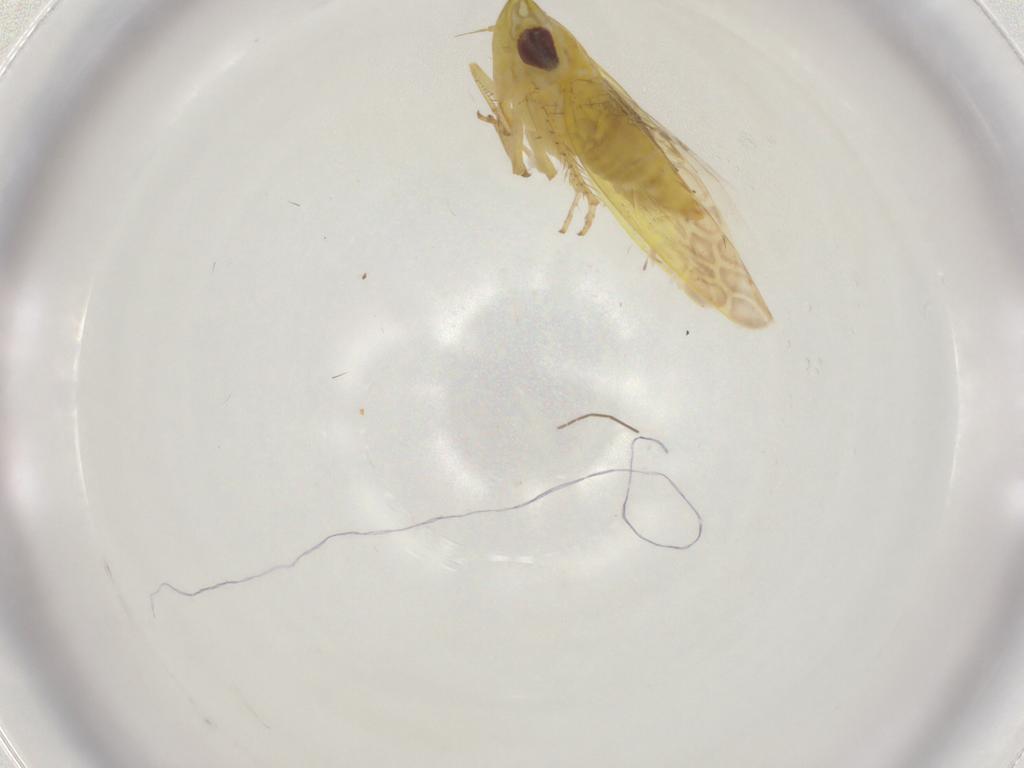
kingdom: Animalia
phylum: Arthropoda
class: Insecta
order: Hemiptera
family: Cicadellidae
